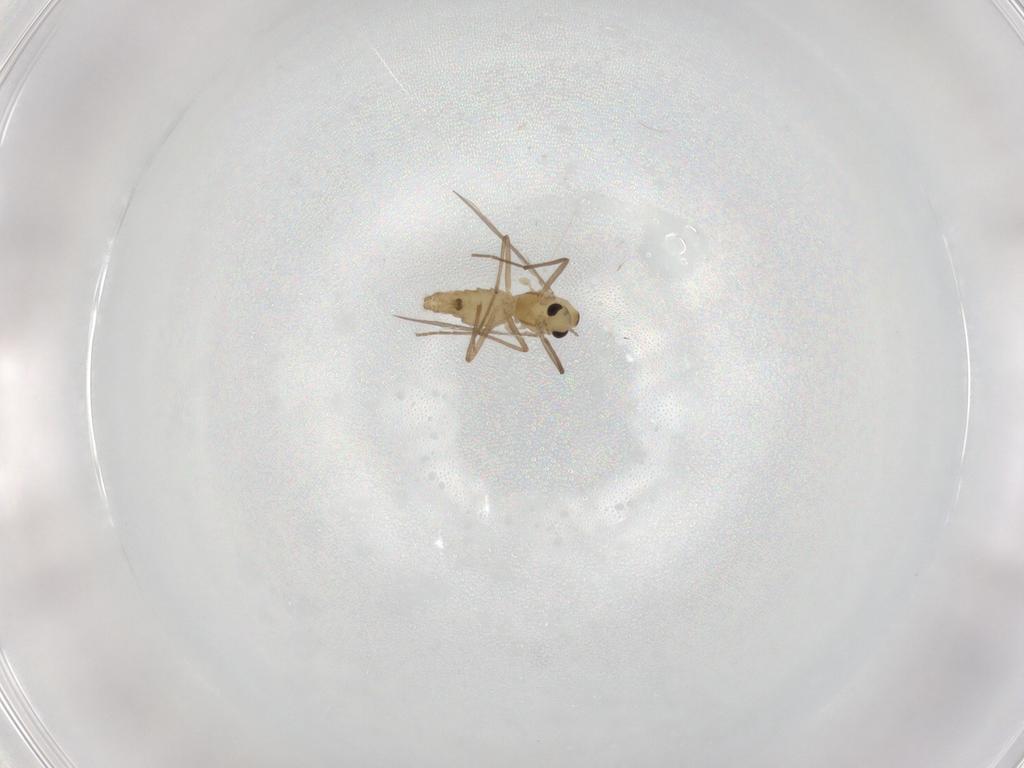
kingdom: Animalia
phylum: Arthropoda
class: Insecta
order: Diptera
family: Chironomidae
